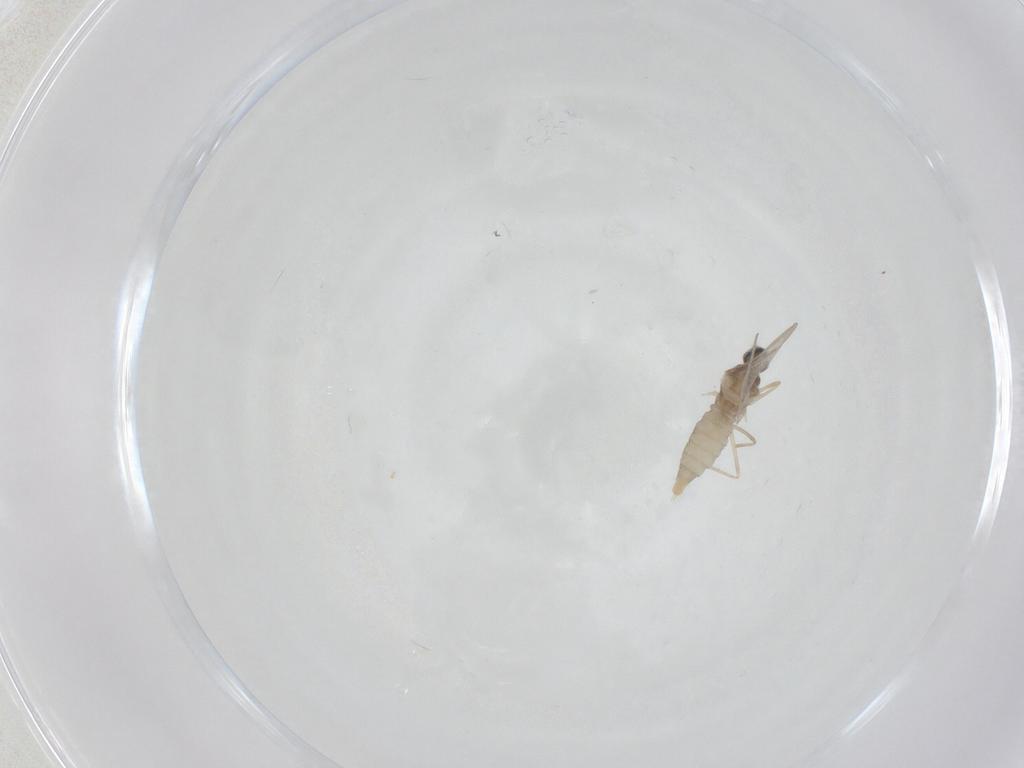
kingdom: Animalia
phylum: Arthropoda
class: Insecta
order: Diptera
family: Cecidomyiidae
